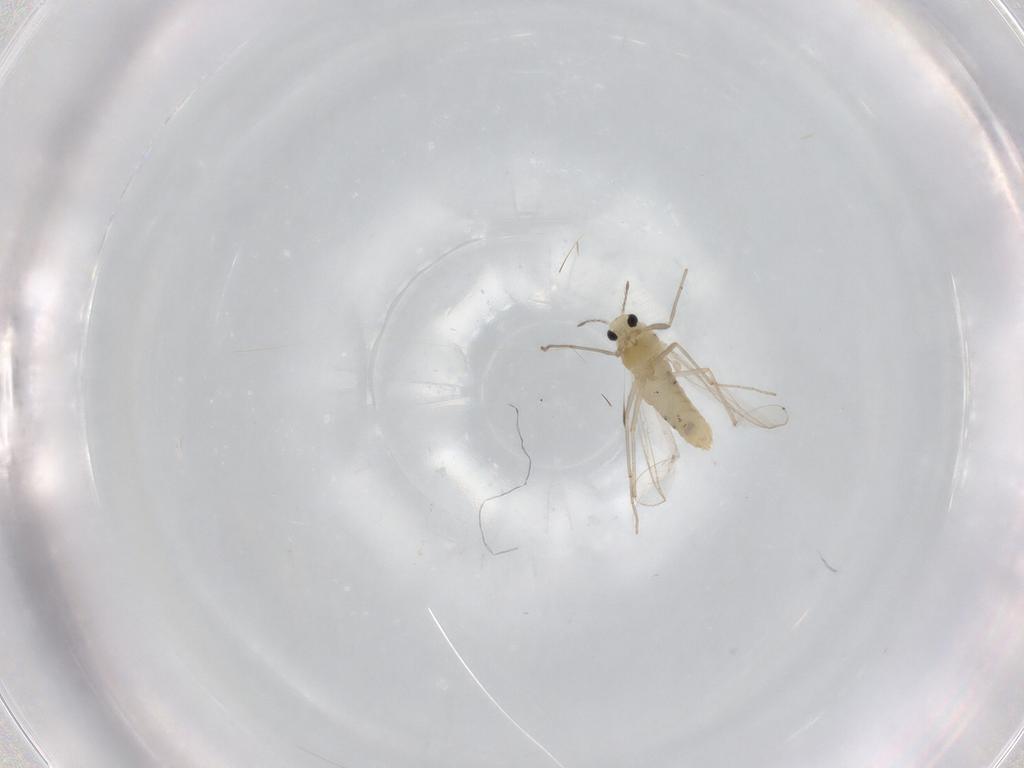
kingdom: Animalia
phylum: Arthropoda
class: Insecta
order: Diptera
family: Chironomidae
